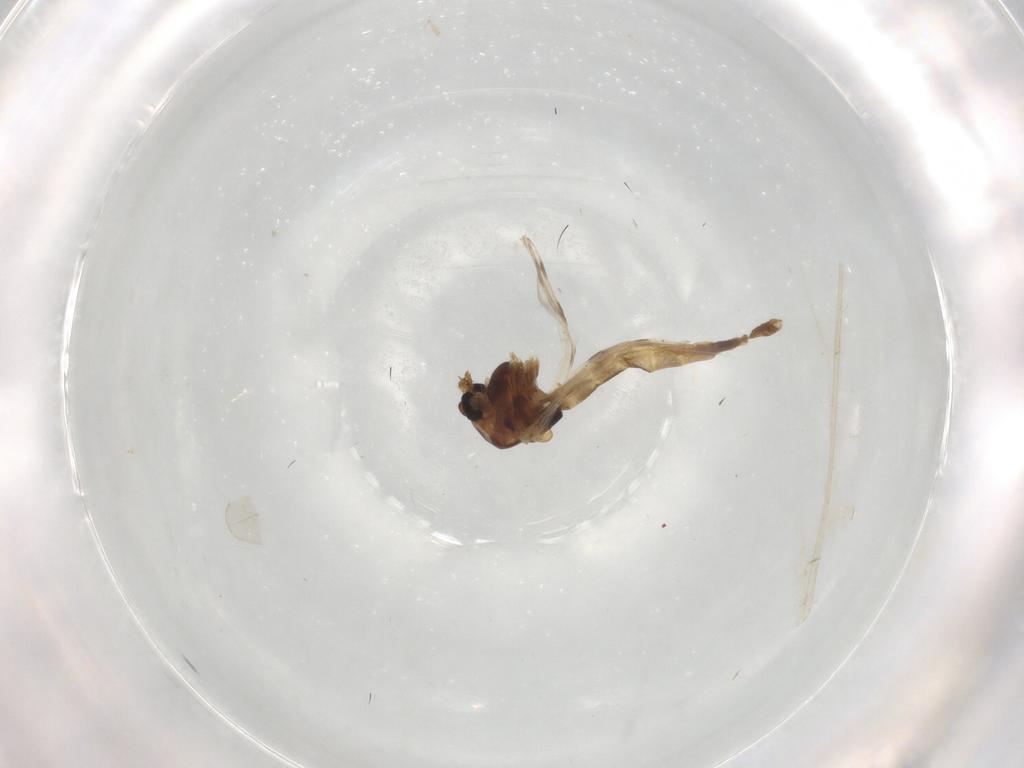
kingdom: Animalia
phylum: Arthropoda
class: Insecta
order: Diptera
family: Chironomidae
